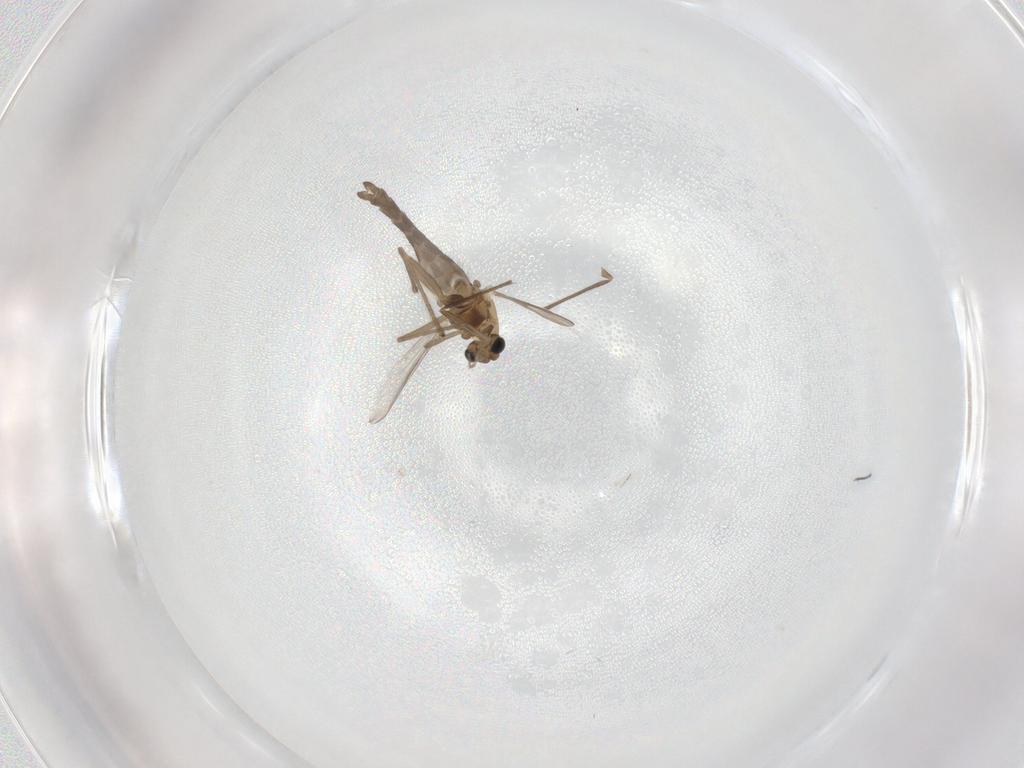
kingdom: Animalia
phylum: Arthropoda
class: Insecta
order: Diptera
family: Chironomidae
